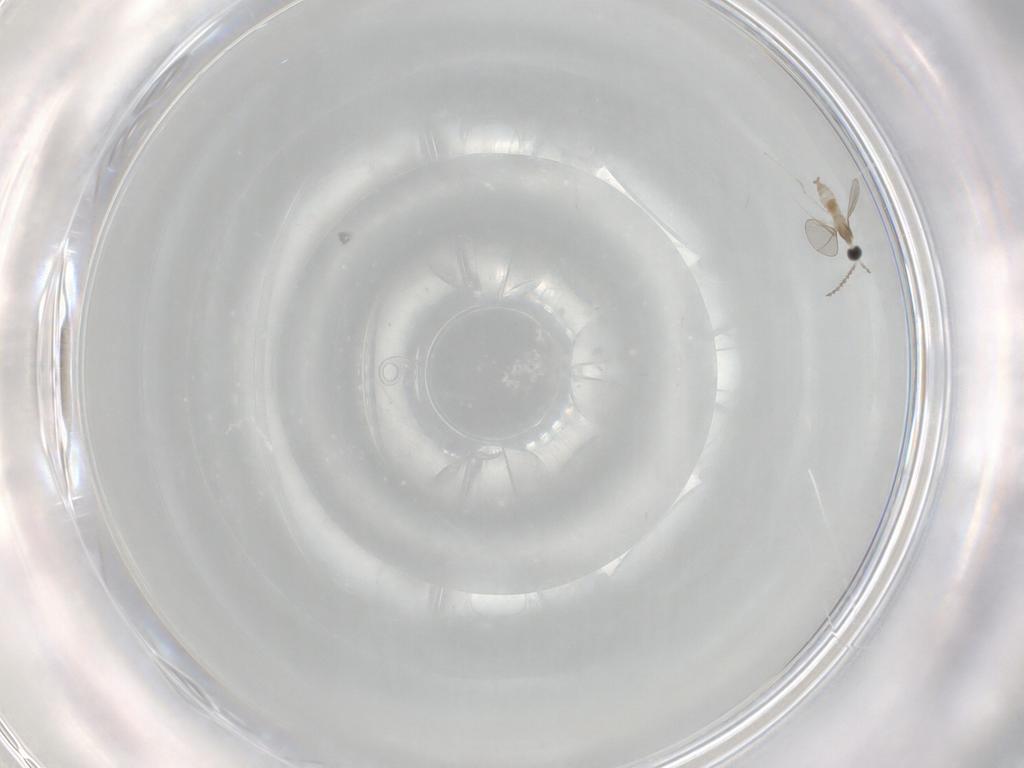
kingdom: Animalia
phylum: Arthropoda
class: Insecta
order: Diptera
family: Cecidomyiidae
